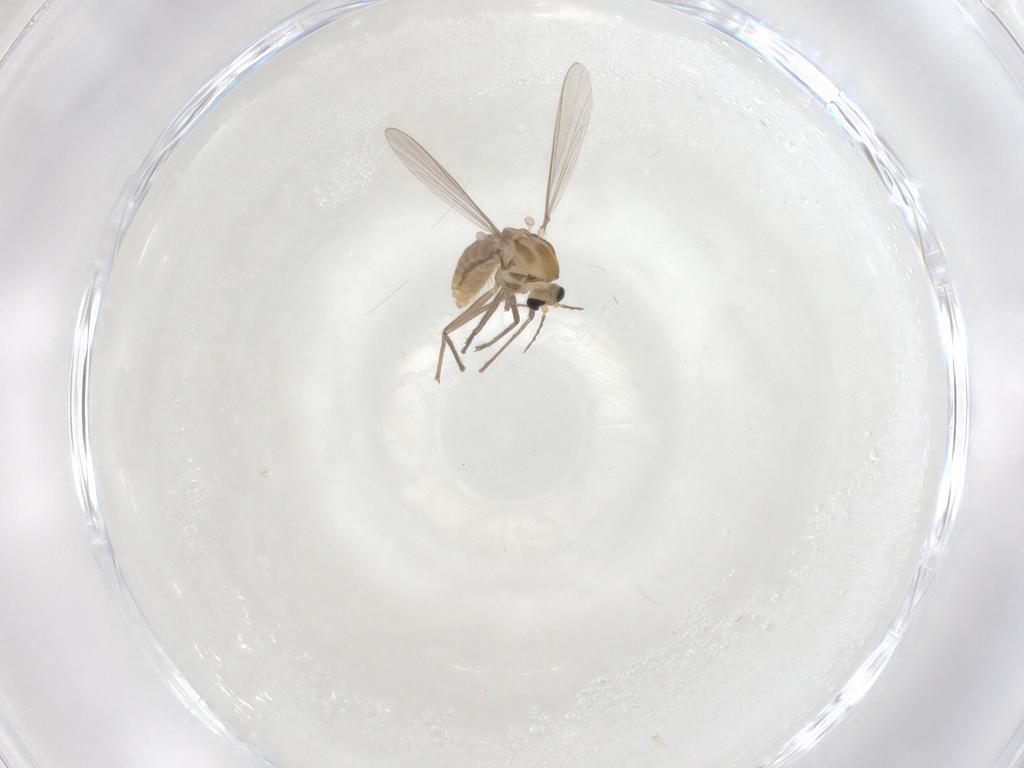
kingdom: Animalia
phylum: Arthropoda
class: Insecta
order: Diptera
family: Chironomidae
